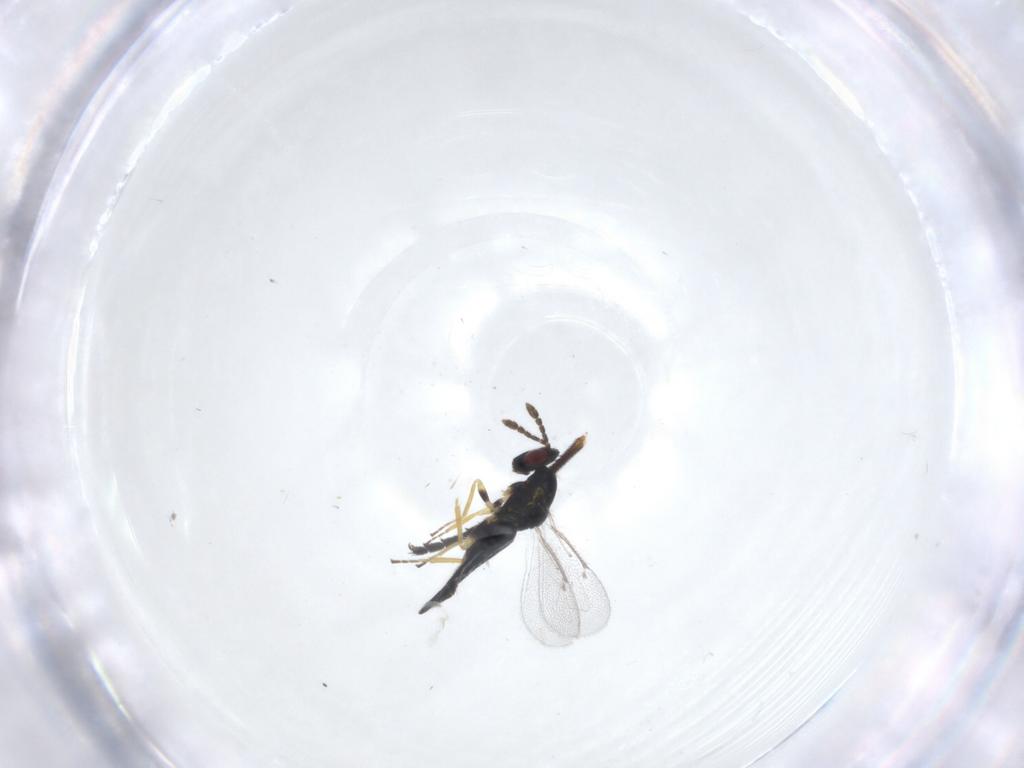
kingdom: Animalia
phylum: Arthropoda
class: Insecta
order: Hymenoptera
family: Eulophidae
